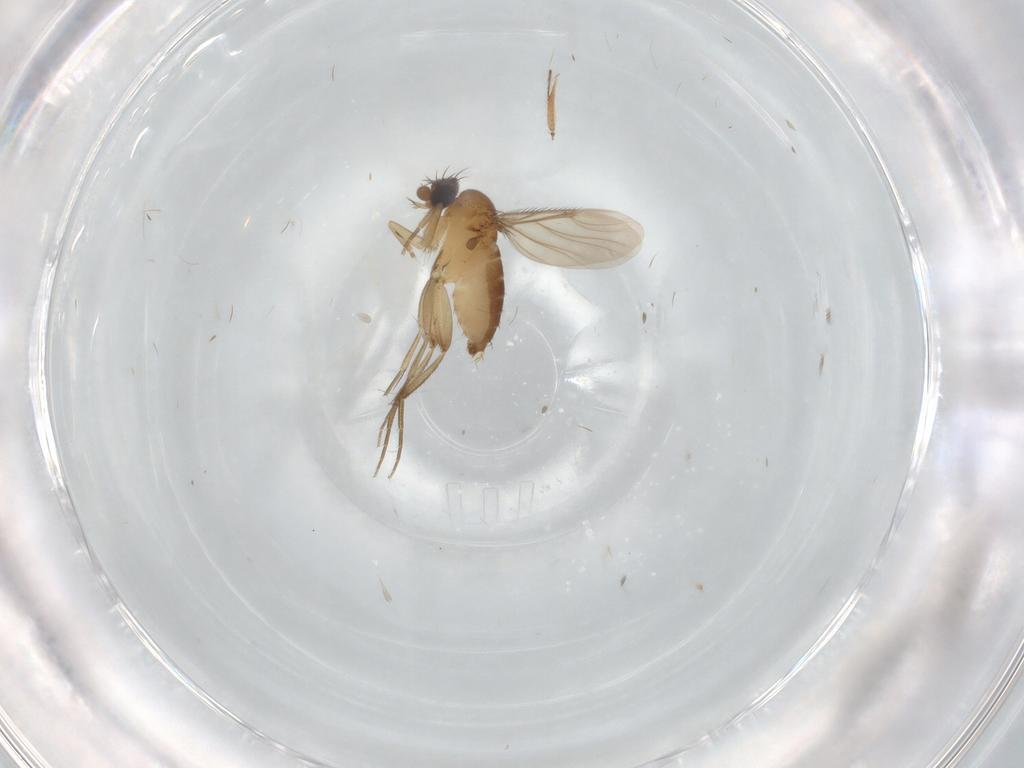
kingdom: Animalia
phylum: Arthropoda
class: Insecta
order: Diptera
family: Phoridae
